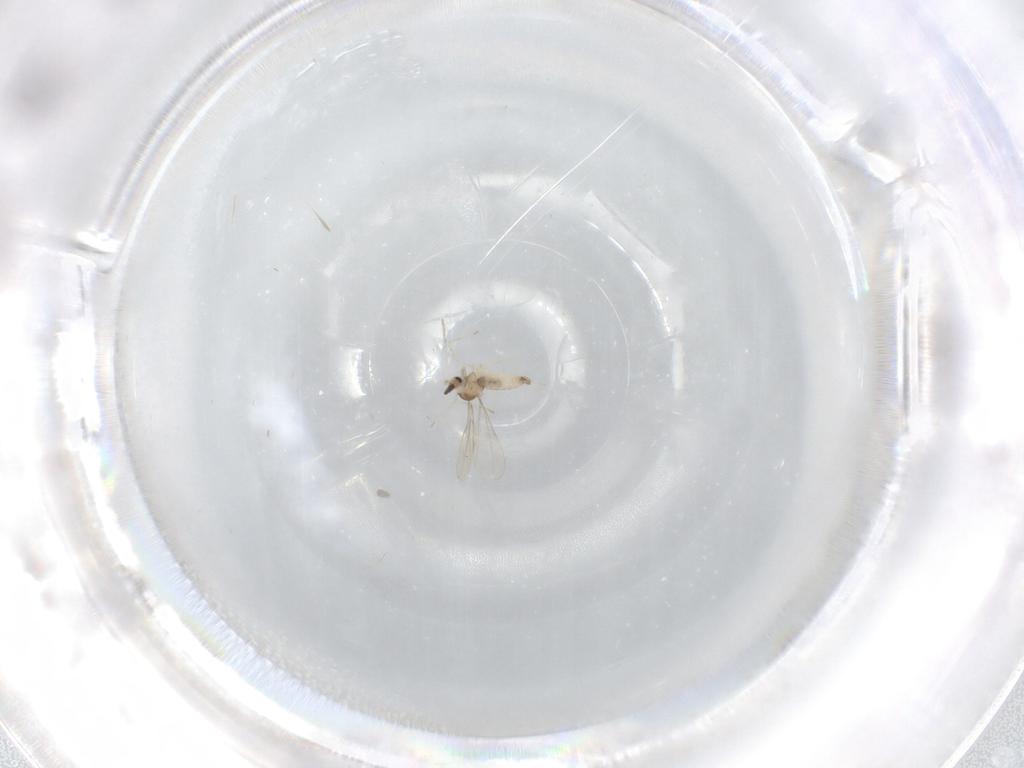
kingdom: Animalia
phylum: Arthropoda
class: Insecta
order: Diptera
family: Cecidomyiidae
